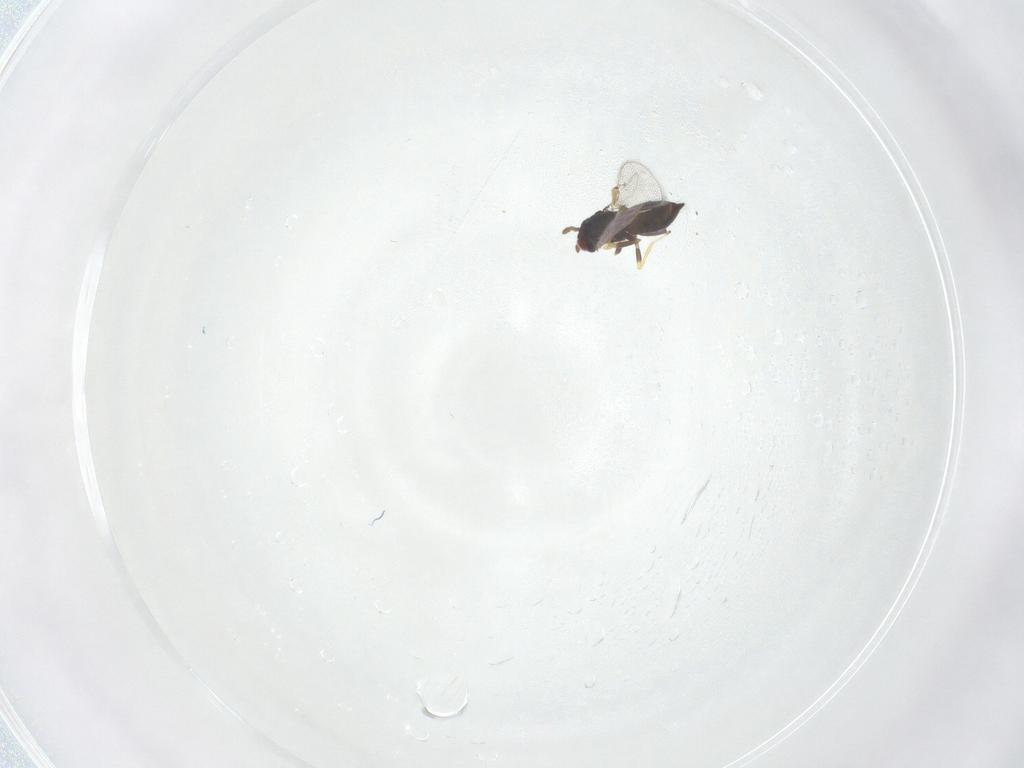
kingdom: Animalia
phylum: Arthropoda
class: Insecta
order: Hymenoptera
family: Eulophidae
